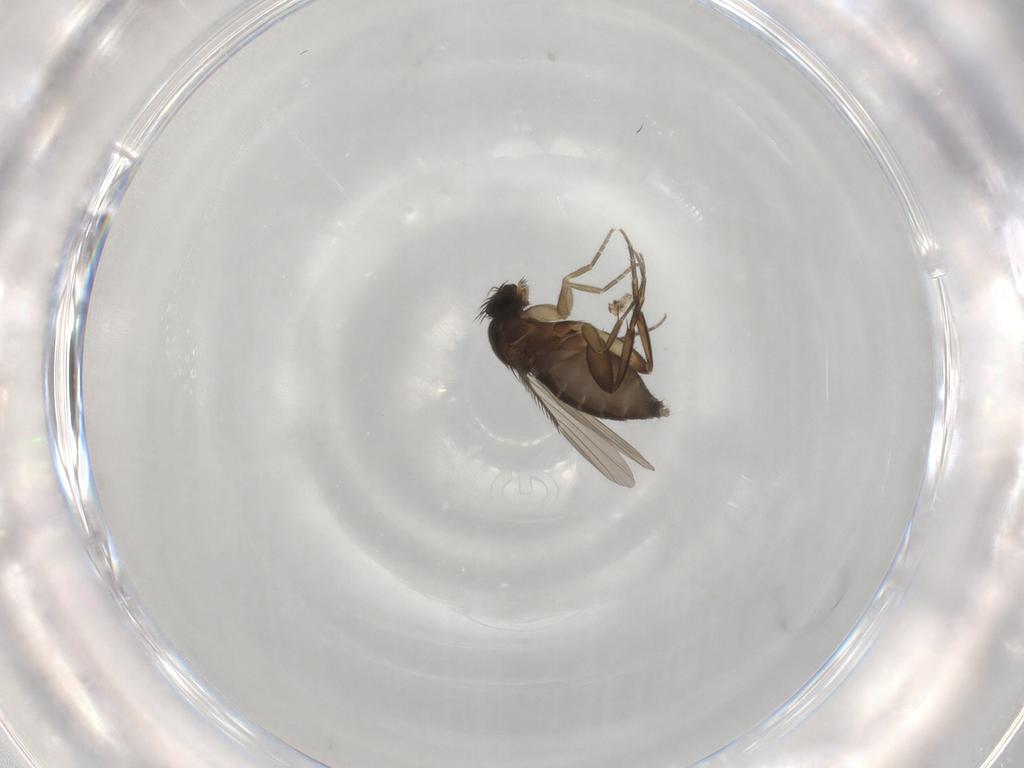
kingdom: Animalia
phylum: Arthropoda
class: Insecta
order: Diptera
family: Phoridae
